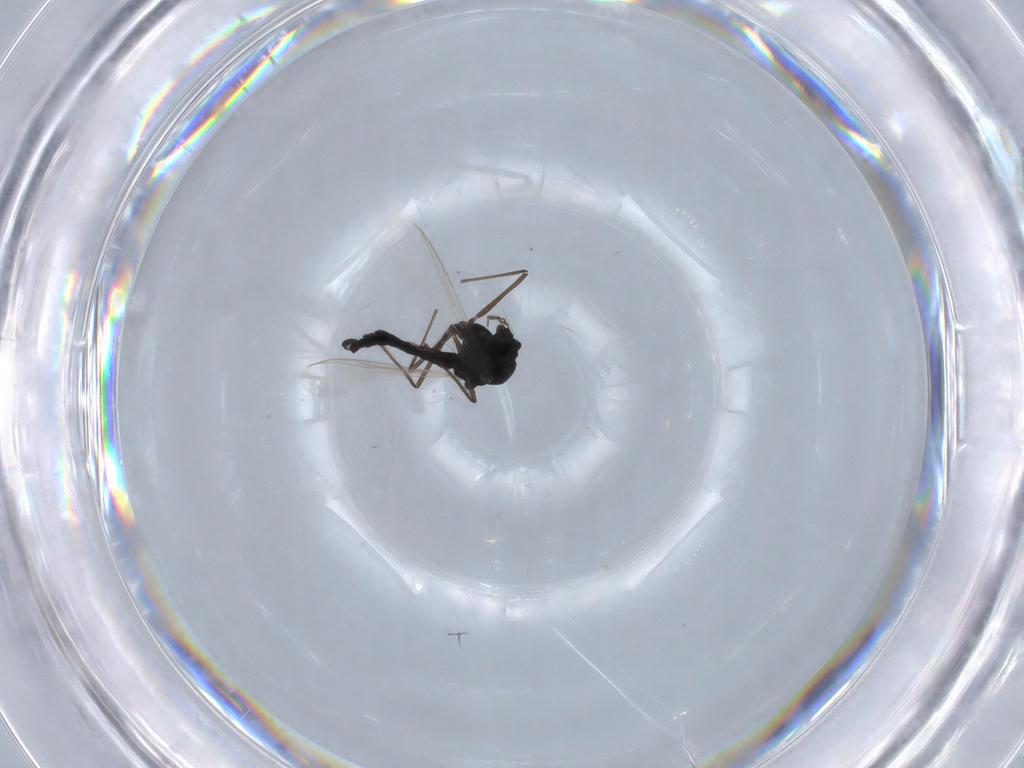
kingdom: Animalia
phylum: Arthropoda
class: Insecta
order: Diptera
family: Chironomidae
